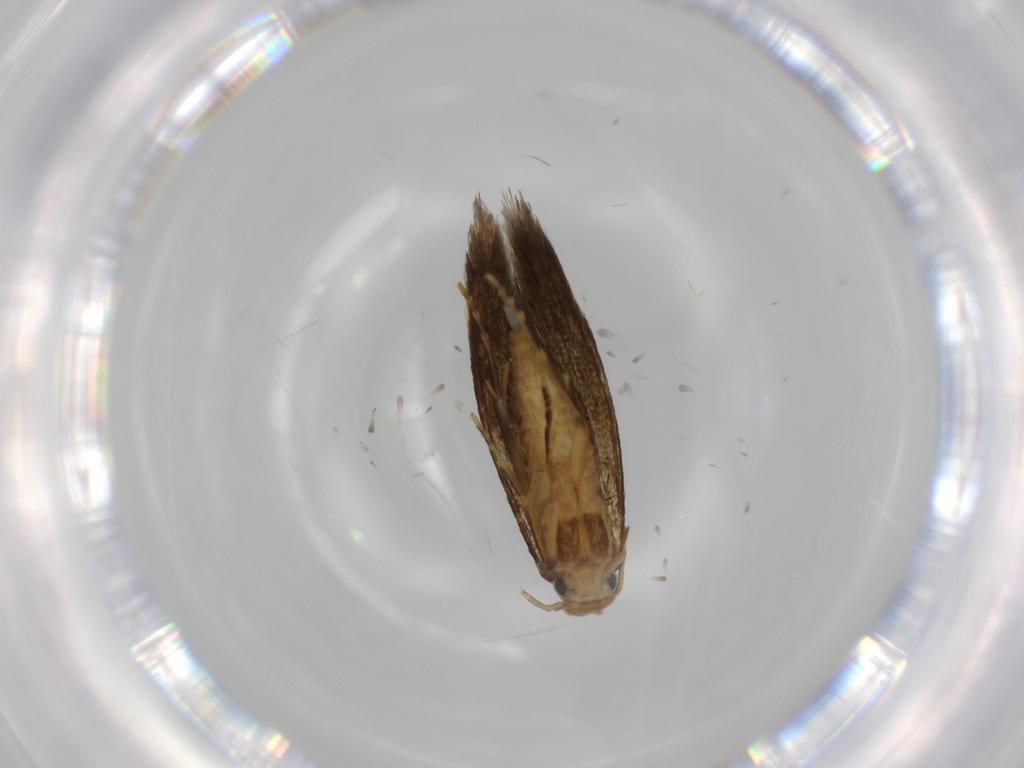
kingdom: Animalia
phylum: Arthropoda
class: Insecta
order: Lepidoptera
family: Tineidae
